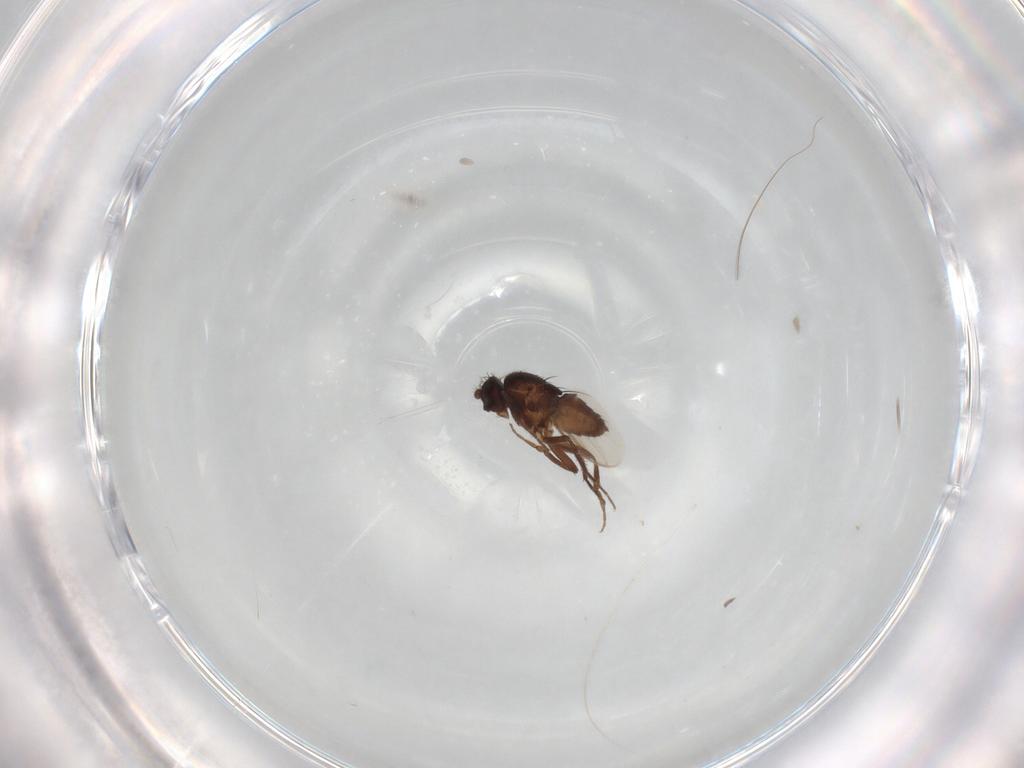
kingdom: Animalia
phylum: Arthropoda
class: Insecta
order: Diptera
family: Sphaeroceridae
